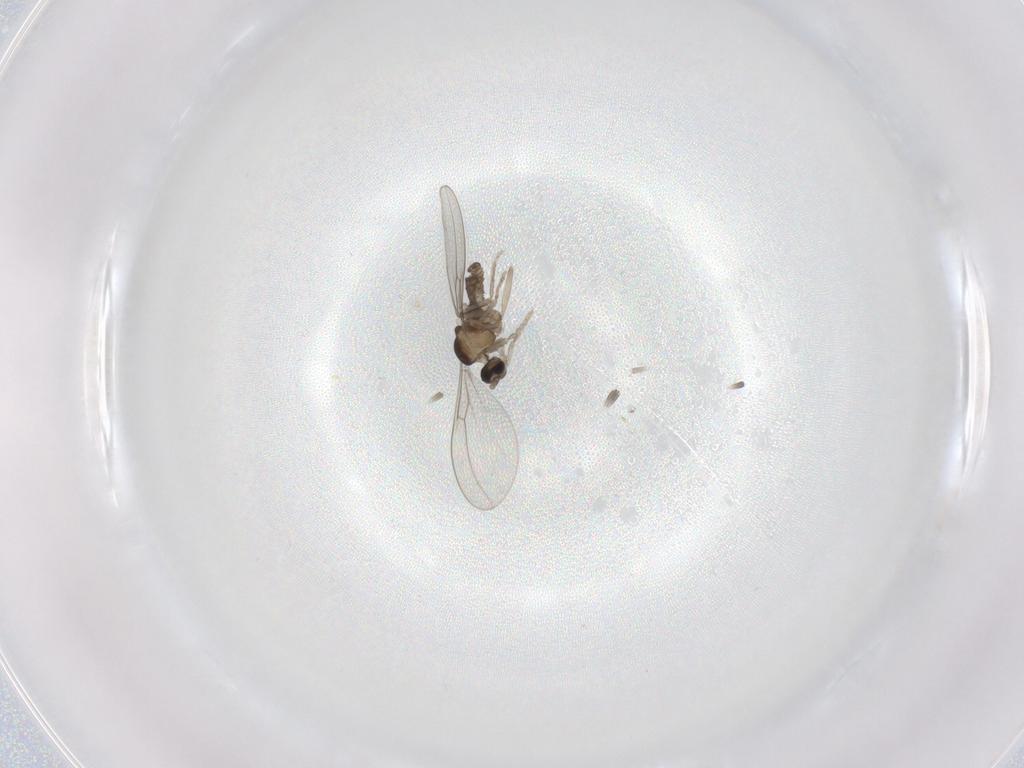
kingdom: Animalia
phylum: Arthropoda
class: Insecta
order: Diptera
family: Cecidomyiidae
